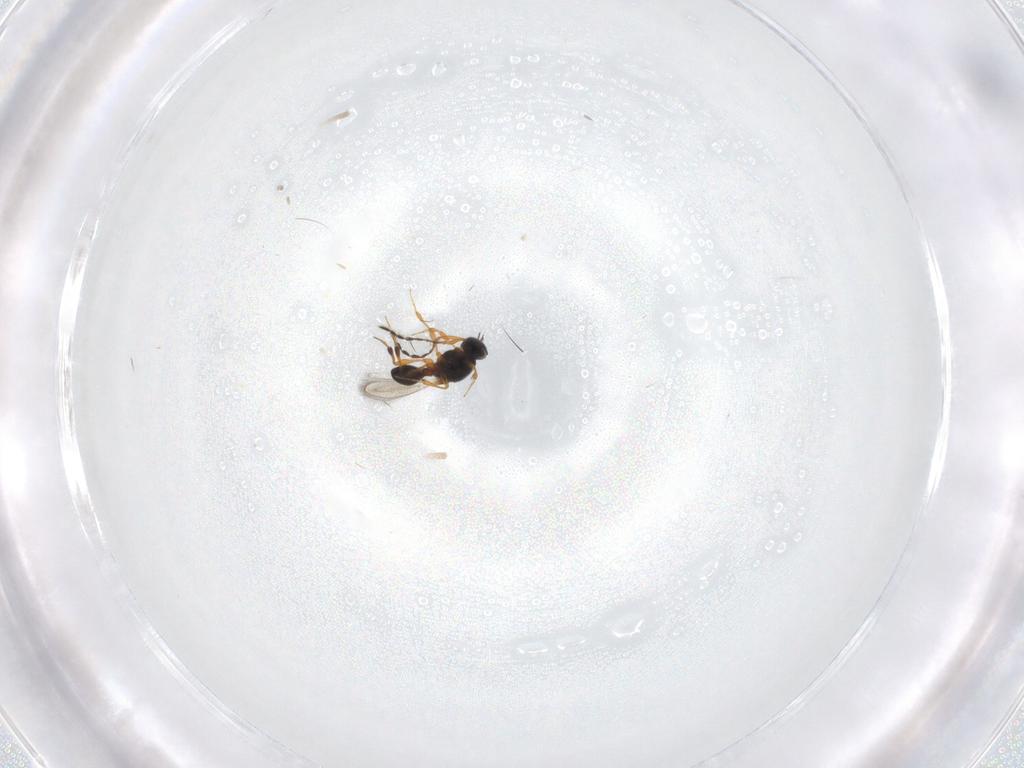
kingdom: Animalia
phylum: Arthropoda
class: Insecta
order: Hymenoptera
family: Platygastridae
